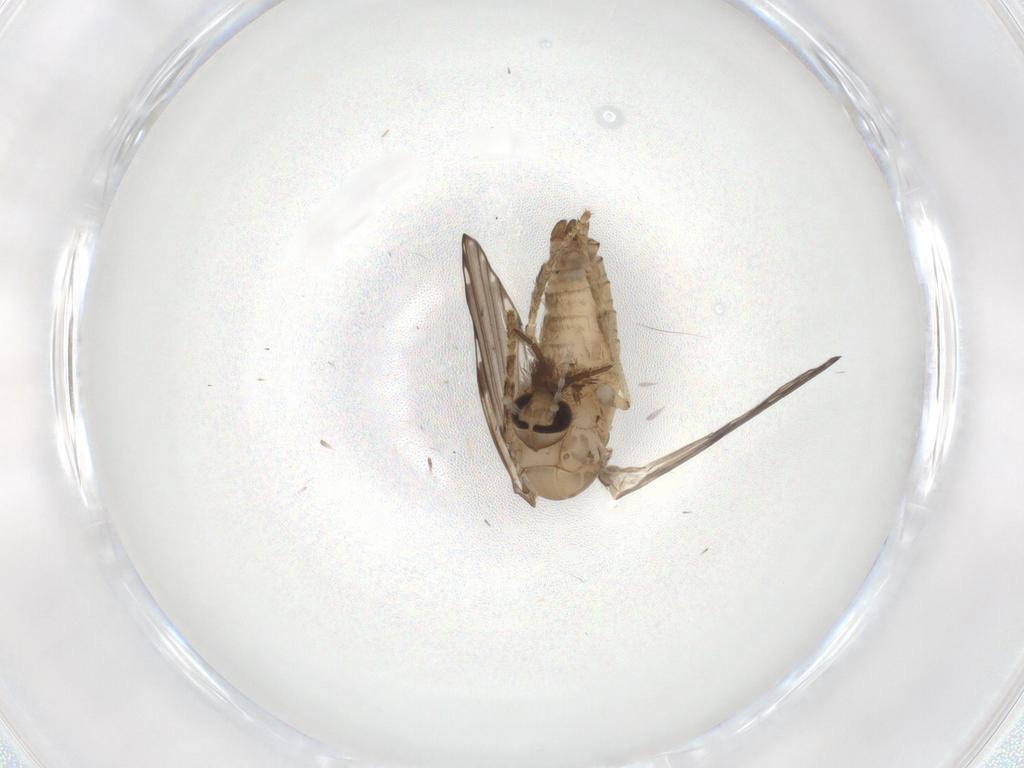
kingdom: Animalia
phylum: Arthropoda
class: Insecta
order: Diptera
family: Psychodidae
